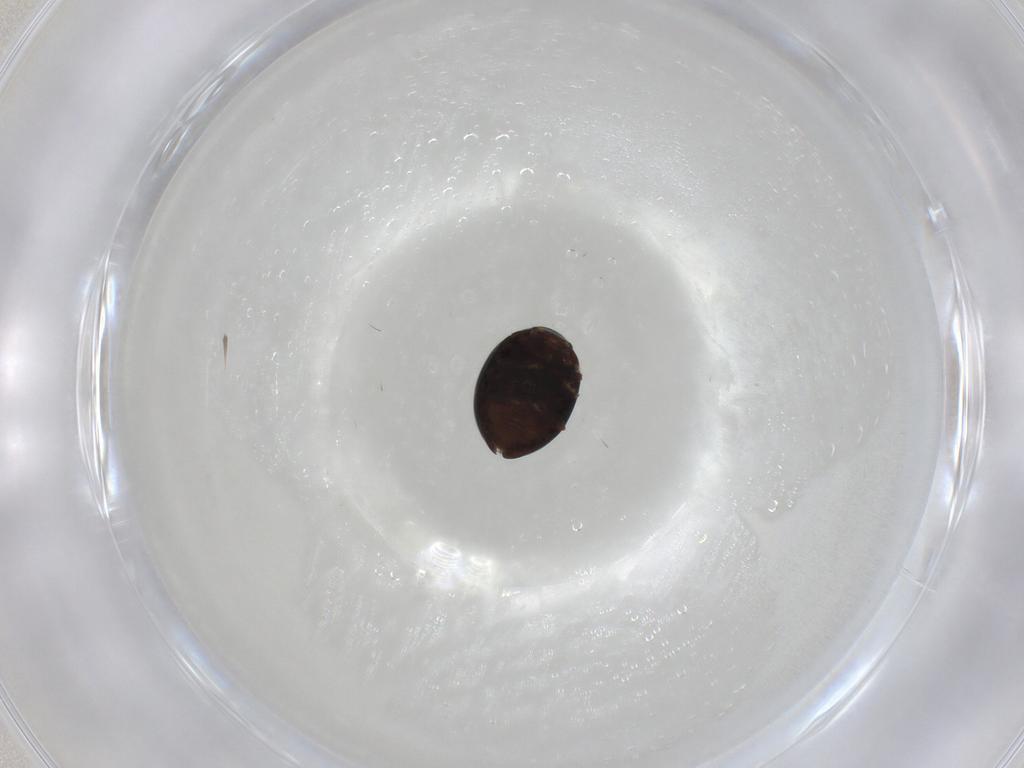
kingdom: Animalia
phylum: Arthropoda
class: Insecta
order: Coleoptera
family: Coccinellidae
